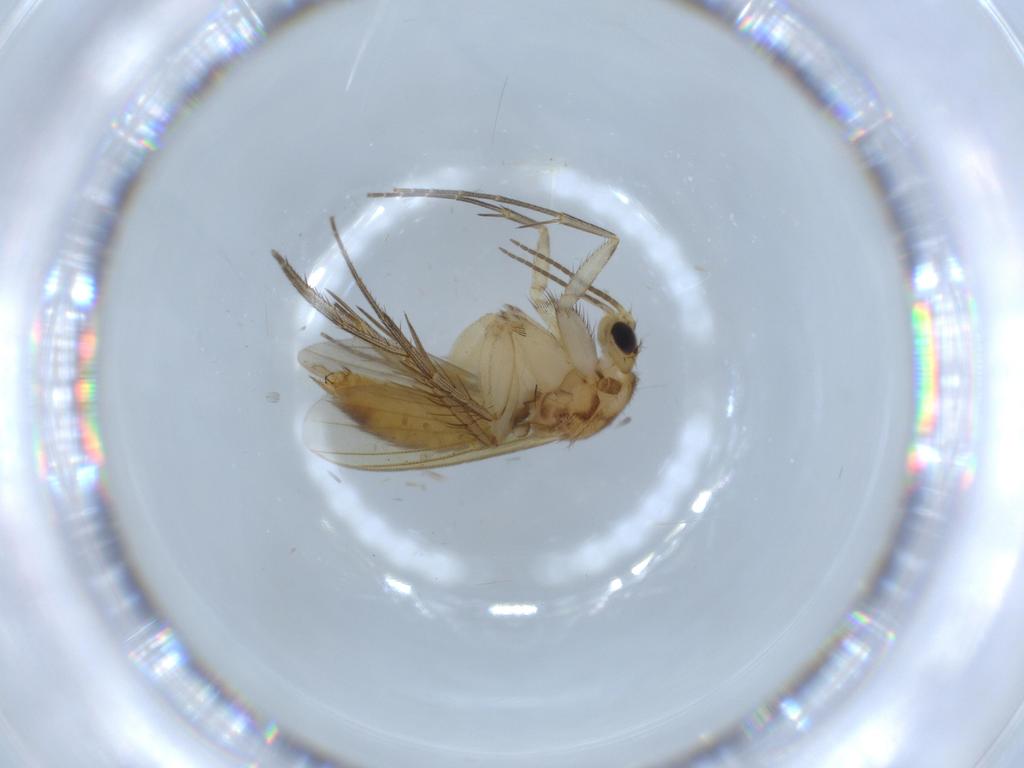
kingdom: Animalia
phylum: Arthropoda
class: Insecta
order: Diptera
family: Mycetophilidae
